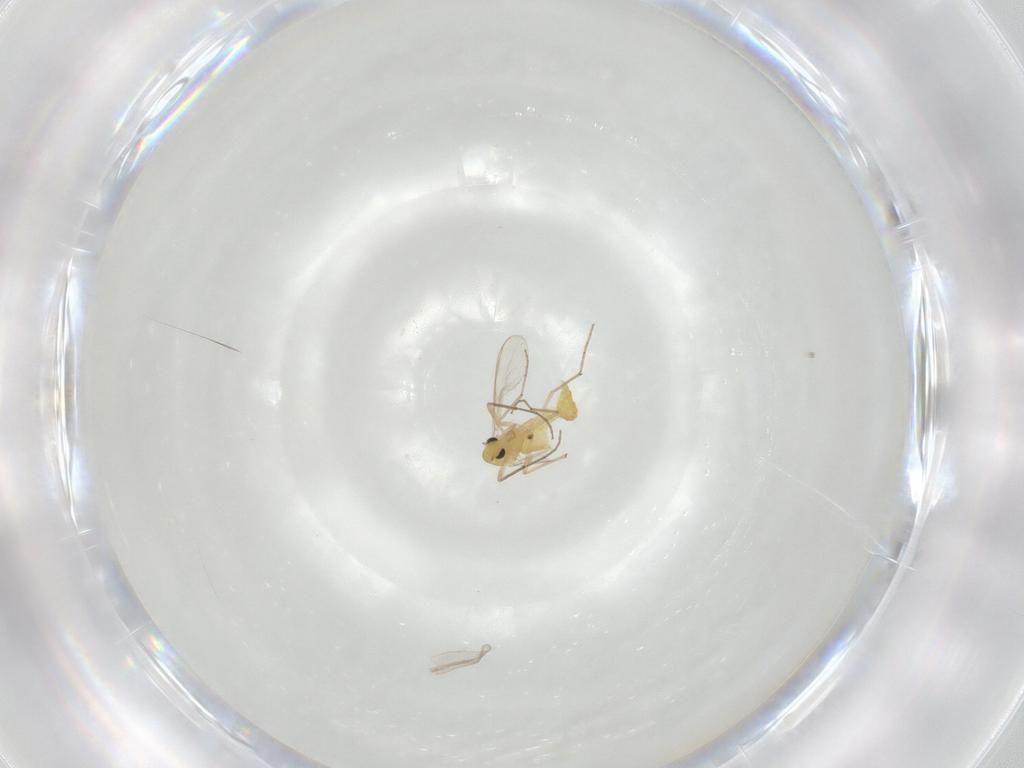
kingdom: Animalia
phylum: Arthropoda
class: Insecta
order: Diptera
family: Chironomidae
